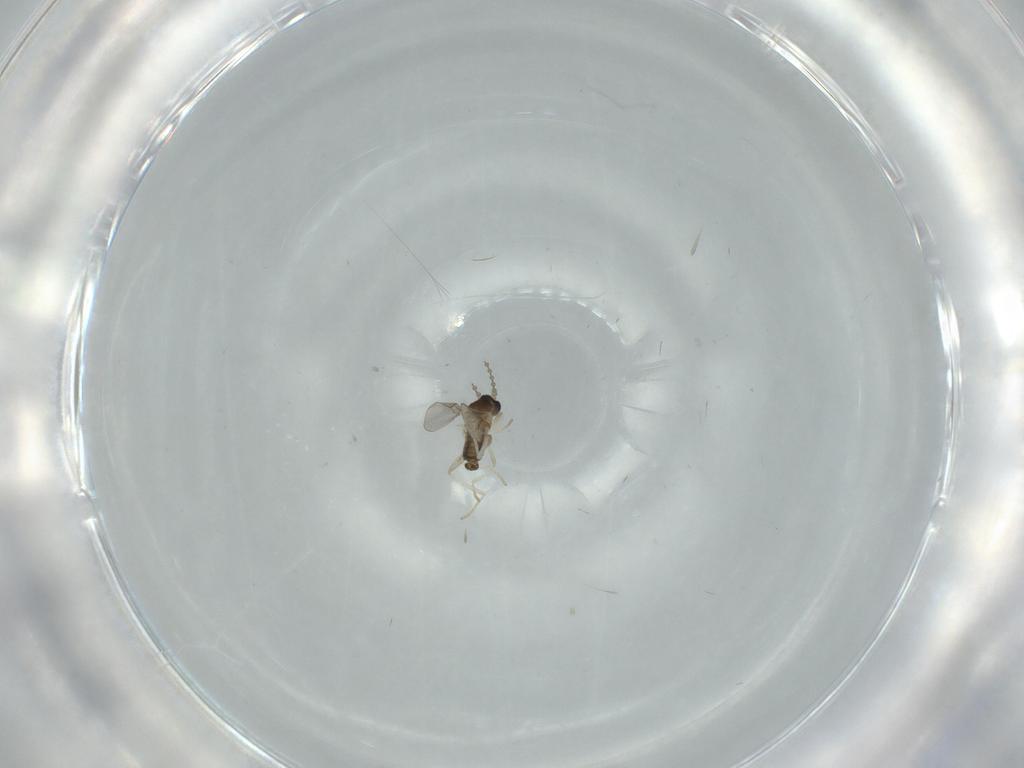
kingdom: Animalia
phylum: Arthropoda
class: Insecta
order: Diptera
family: Cecidomyiidae
